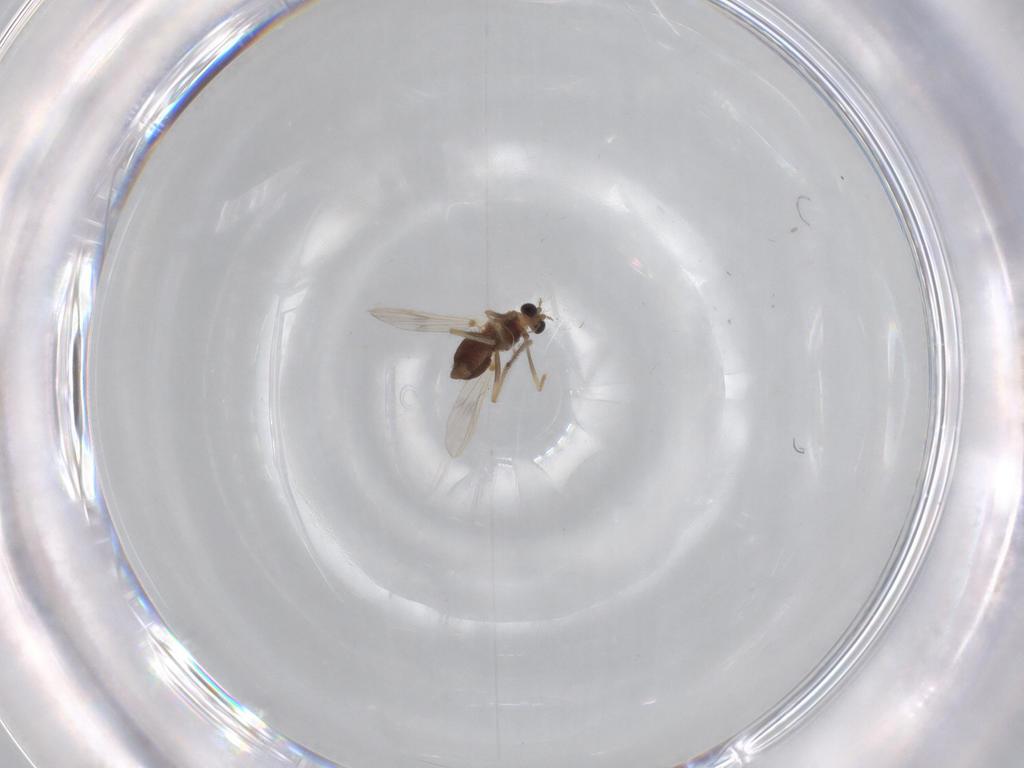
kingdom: Animalia
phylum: Arthropoda
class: Insecta
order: Diptera
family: Chironomidae
